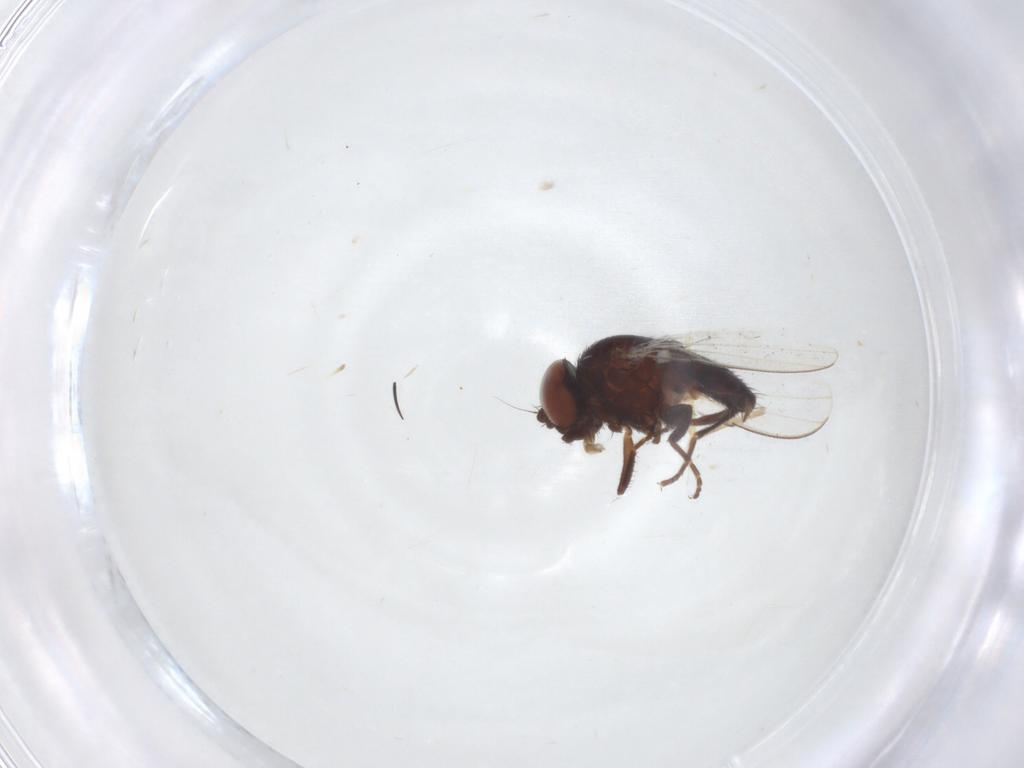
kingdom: Animalia
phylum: Arthropoda
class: Insecta
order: Diptera
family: Milichiidae
